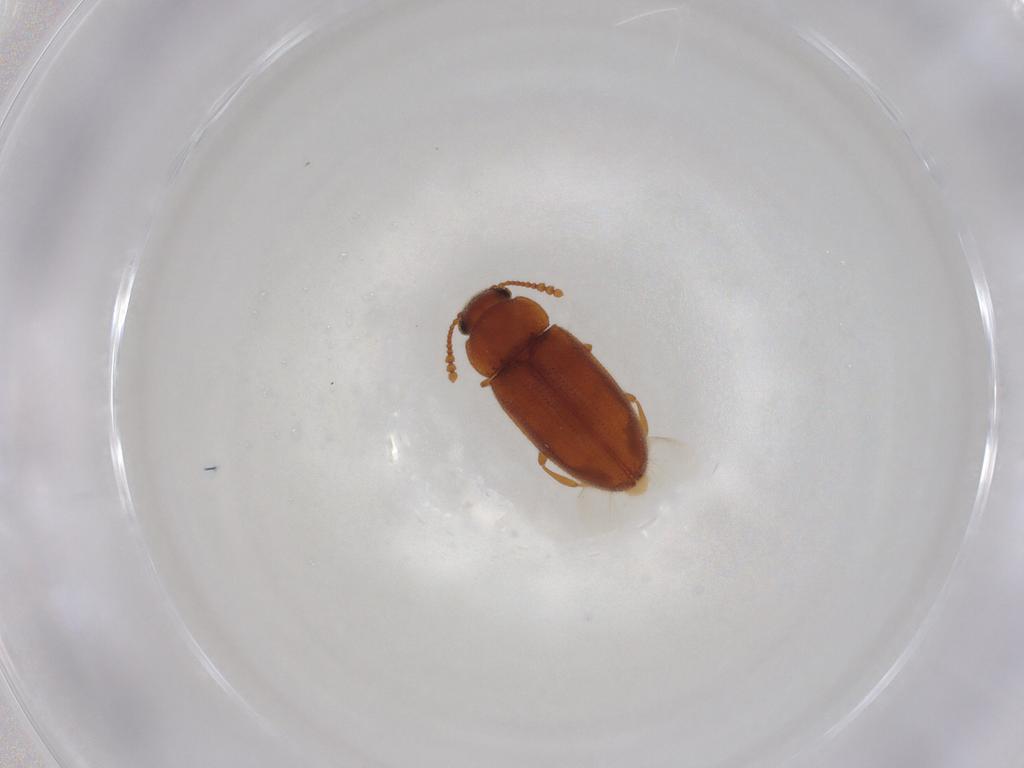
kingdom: Animalia
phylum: Arthropoda
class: Insecta
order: Coleoptera
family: Erotylidae
